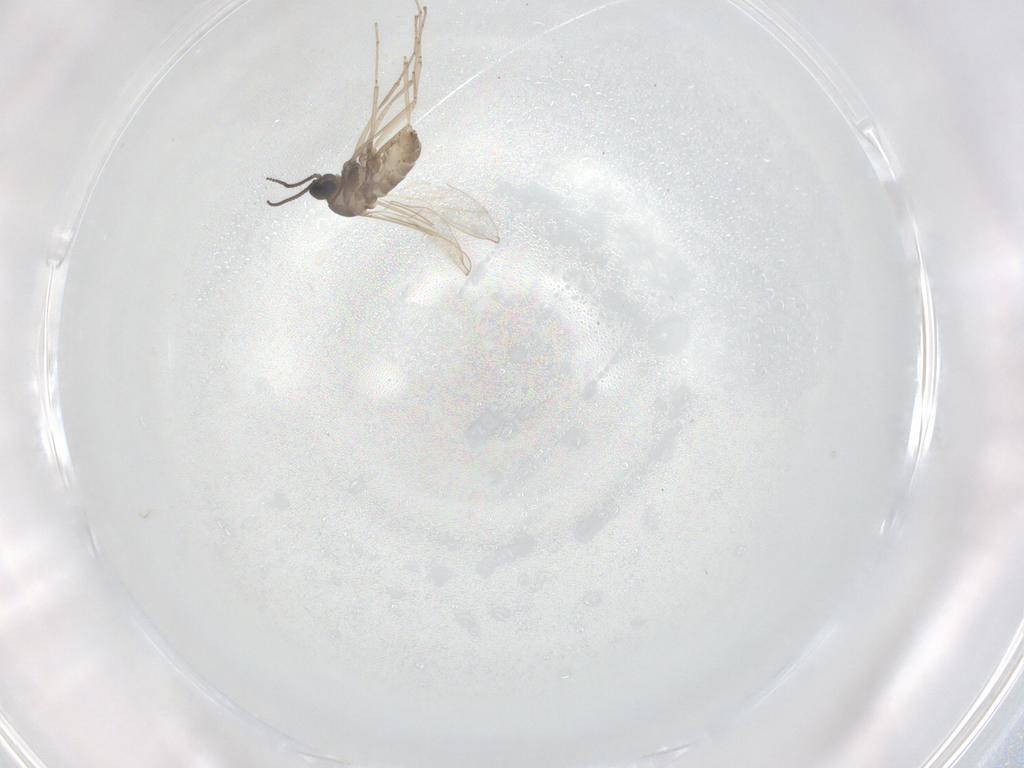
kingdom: Animalia
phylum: Arthropoda
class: Insecta
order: Diptera
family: Cecidomyiidae
